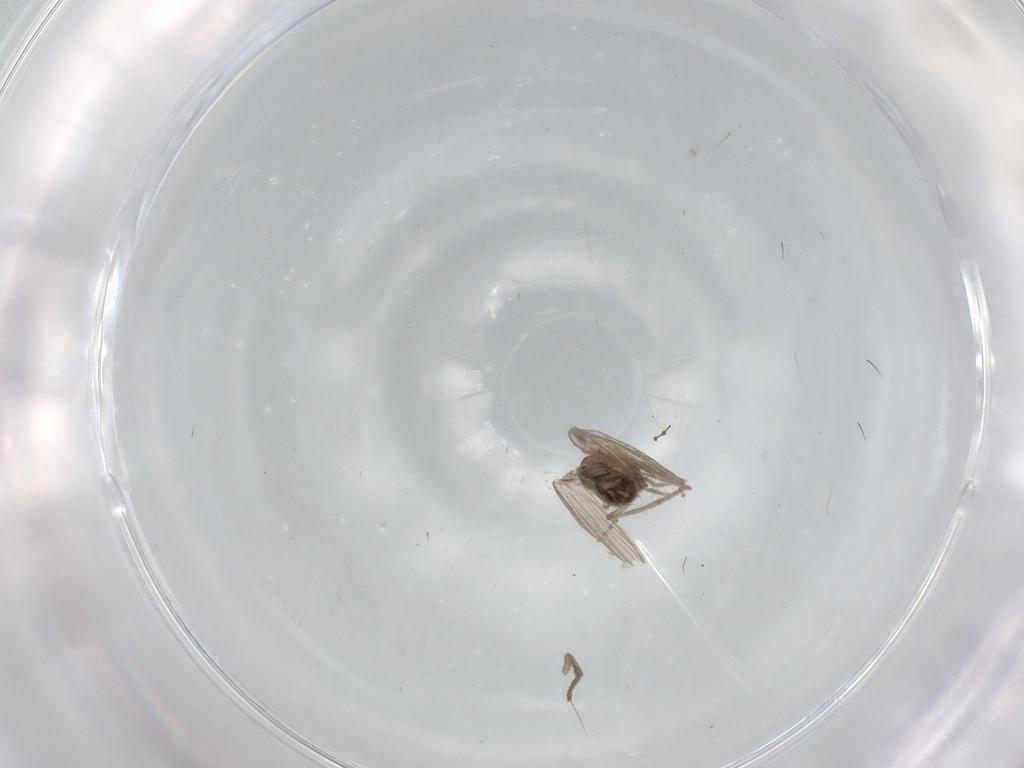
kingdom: Animalia
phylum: Arthropoda
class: Insecta
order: Diptera
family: Psychodidae
